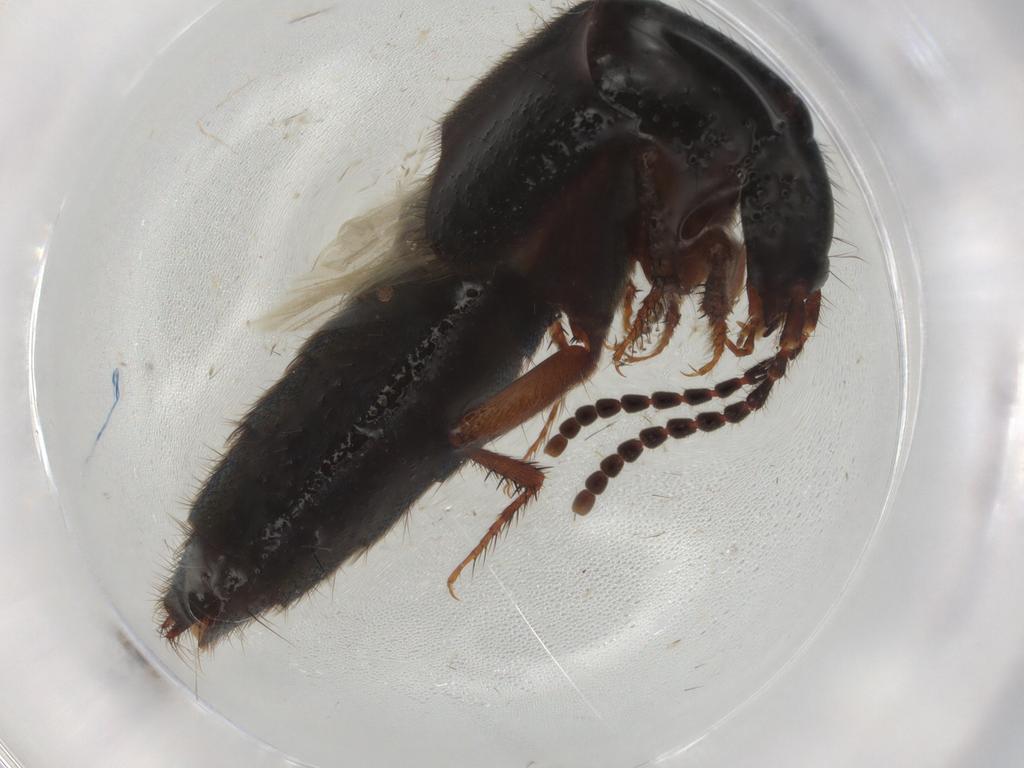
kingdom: Animalia
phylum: Arthropoda
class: Insecta
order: Coleoptera
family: Staphylinidae
